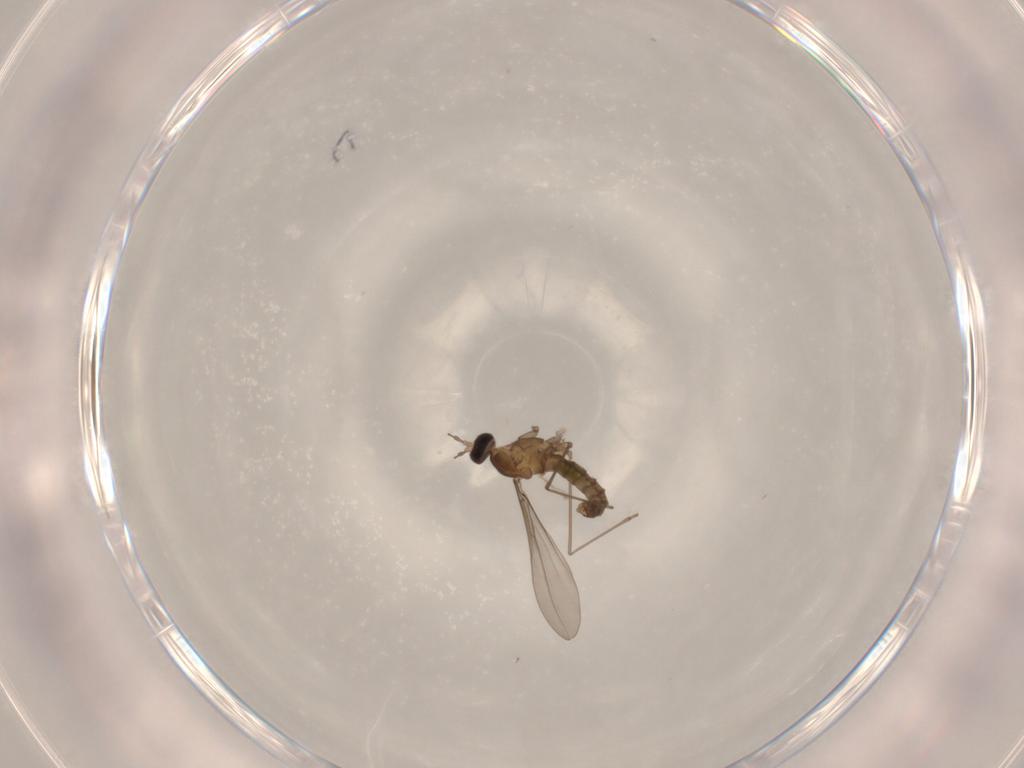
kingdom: Animalia
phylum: Arthropoda
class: Insecta
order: Diptera
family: Cecidomyiidae
